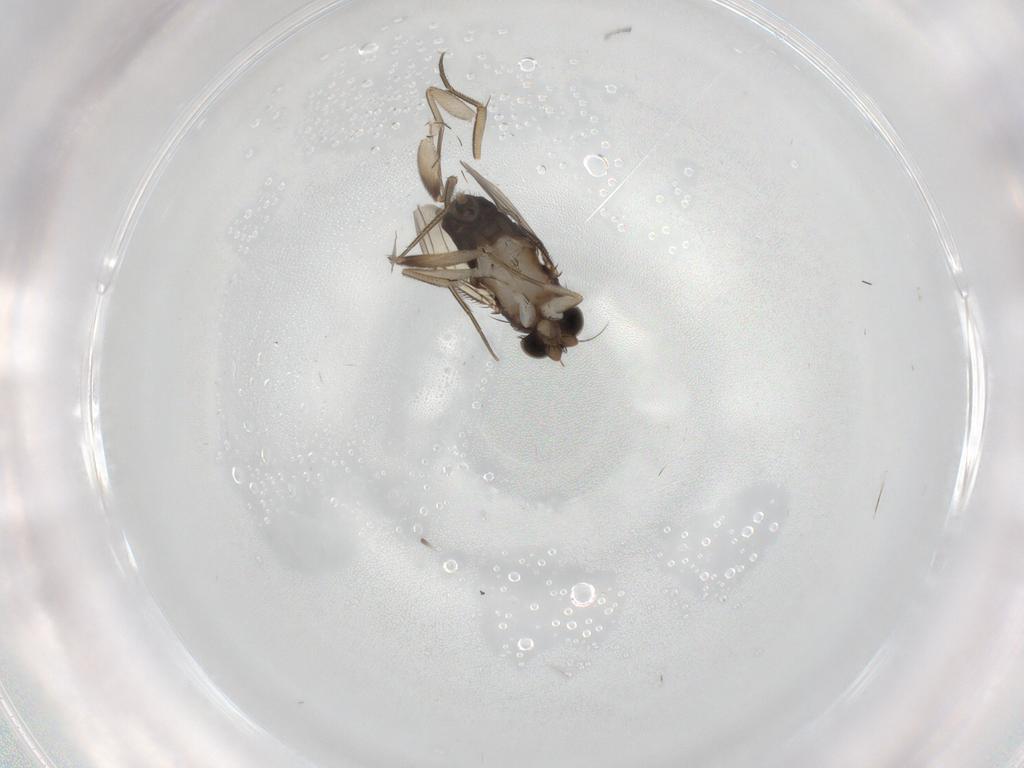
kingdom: Animalia
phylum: Arthropoda
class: Insecta
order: Diptera
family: Phoridae
